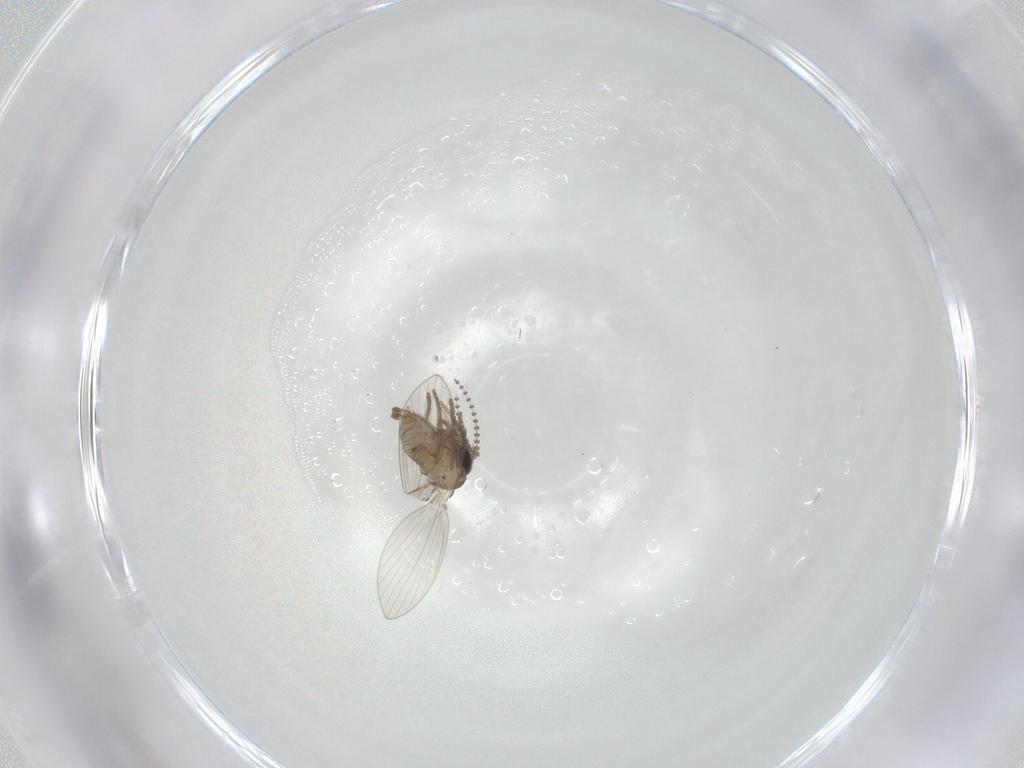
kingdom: Animalia
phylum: Arthropoda
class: Insecta
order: Diptera
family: Psychodidae
